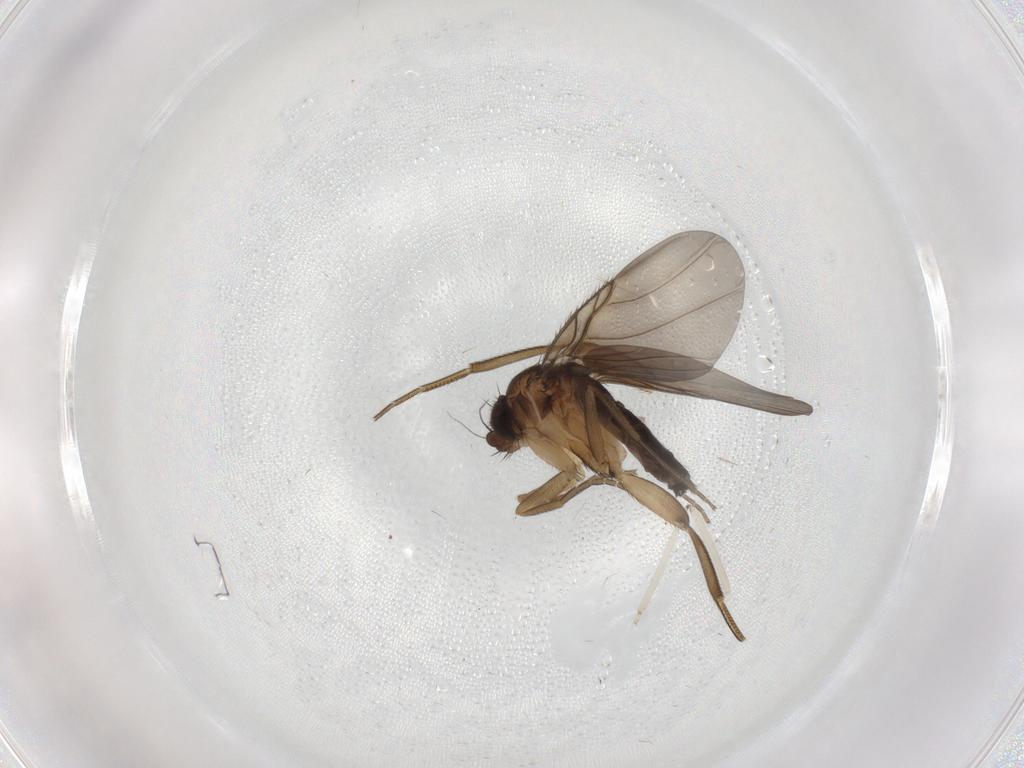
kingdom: Animalia
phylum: Arthropoda
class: Insecta
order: Diptera
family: Sciaridae
